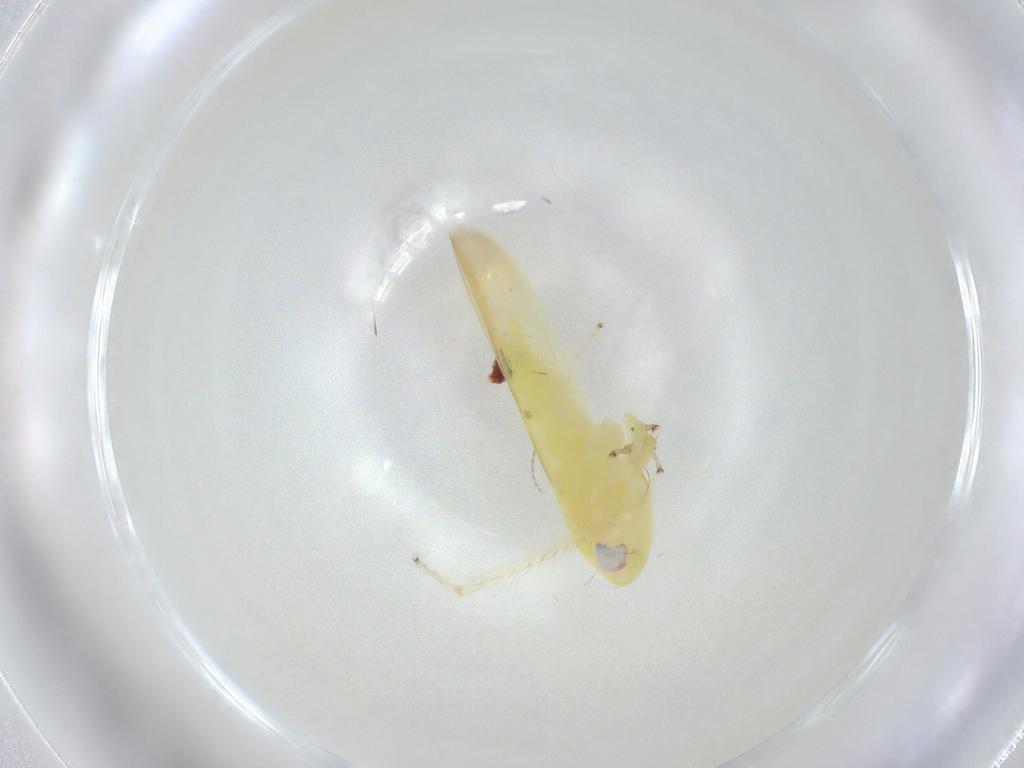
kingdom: Animalia
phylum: Arthropoda
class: Insecta
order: Hemiptera
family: Cicadellidae
